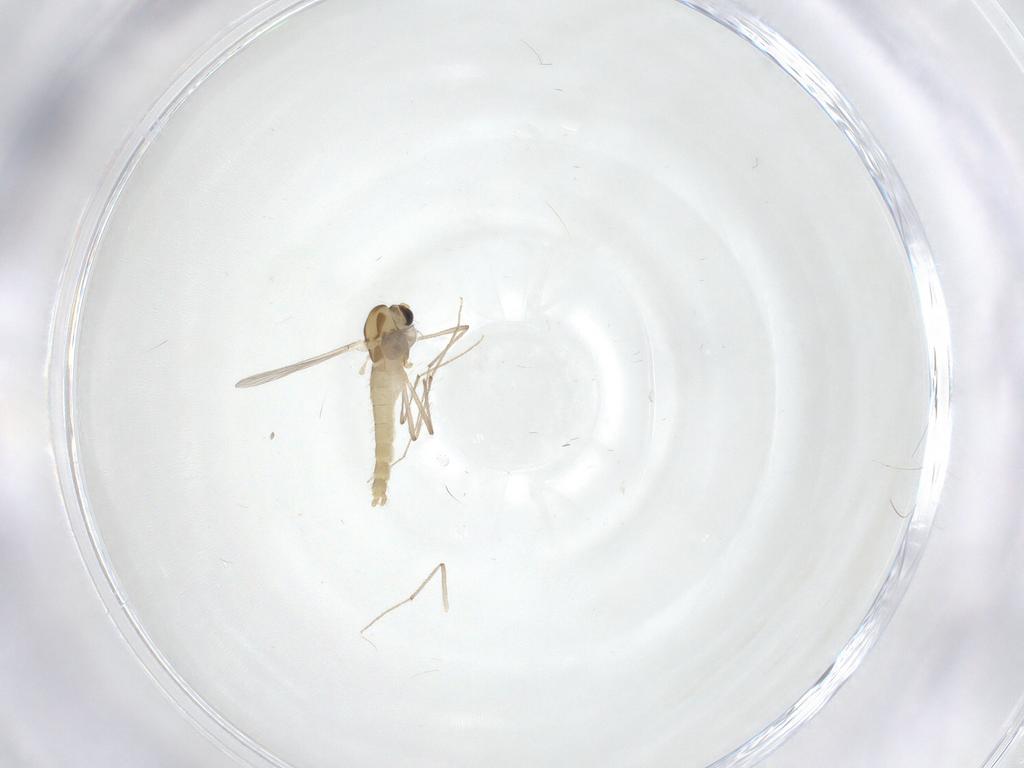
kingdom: Animalia
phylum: Arthropoda
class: Insecta
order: Diptera
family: Chironomidae
